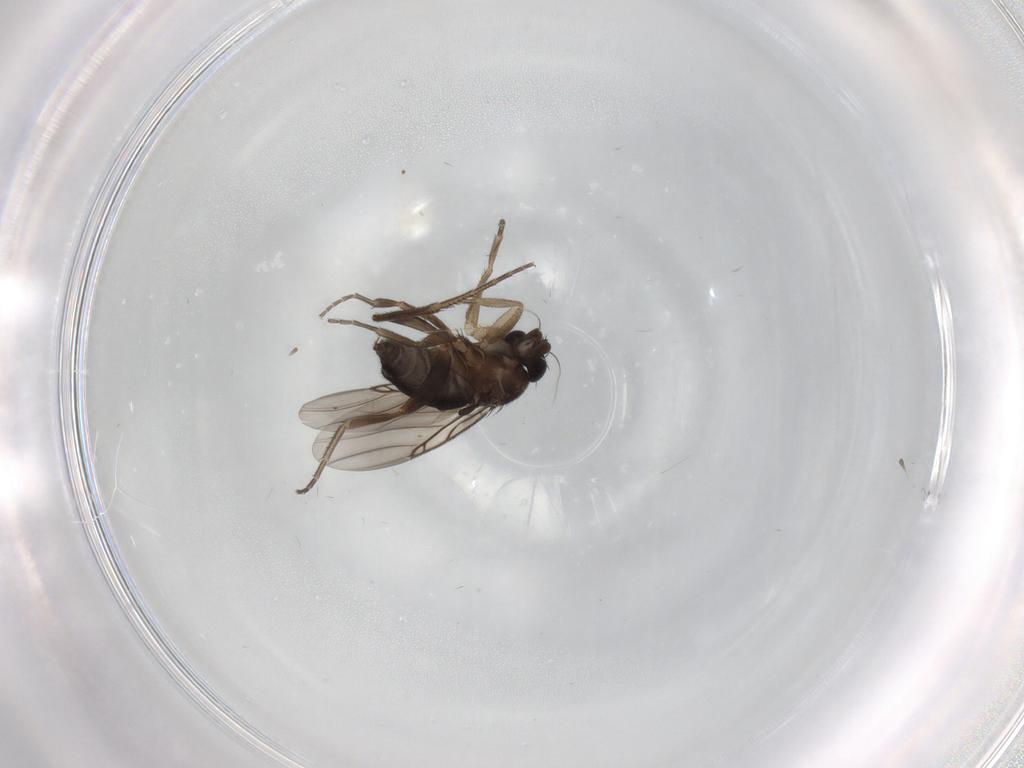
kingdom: Animalia
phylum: Arthropoda
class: Insecta
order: Diptera
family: Phoridae
